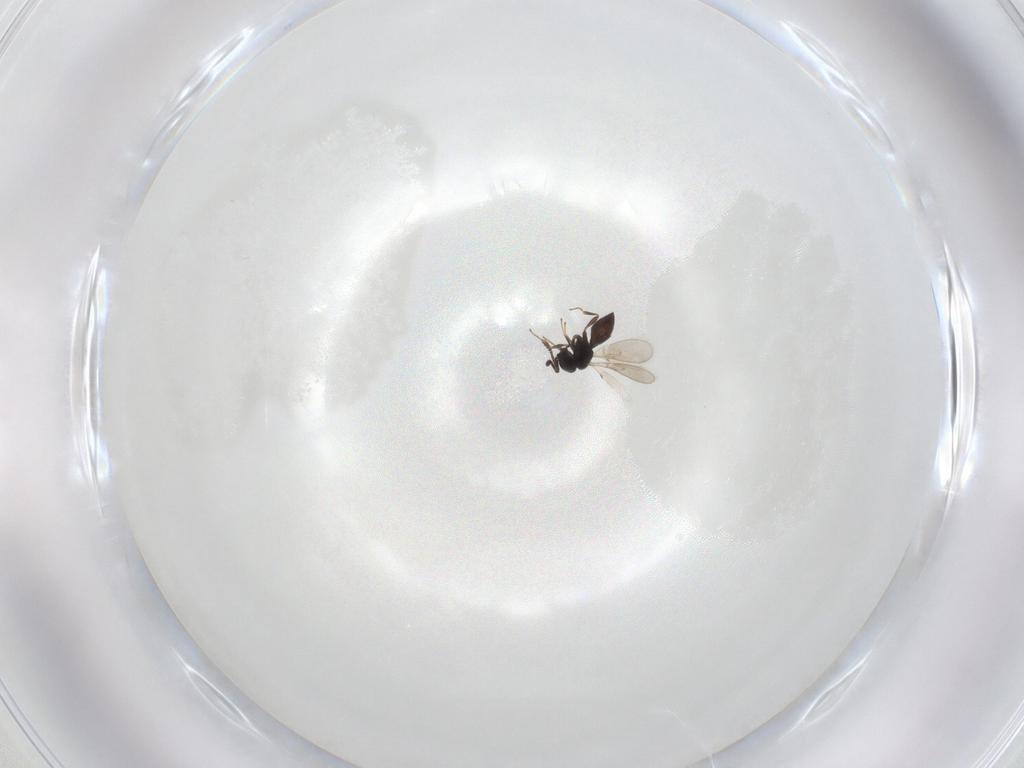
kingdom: Animalia
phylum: Arthropoda
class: Insecta
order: Hymenoptera
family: Scelionidae
